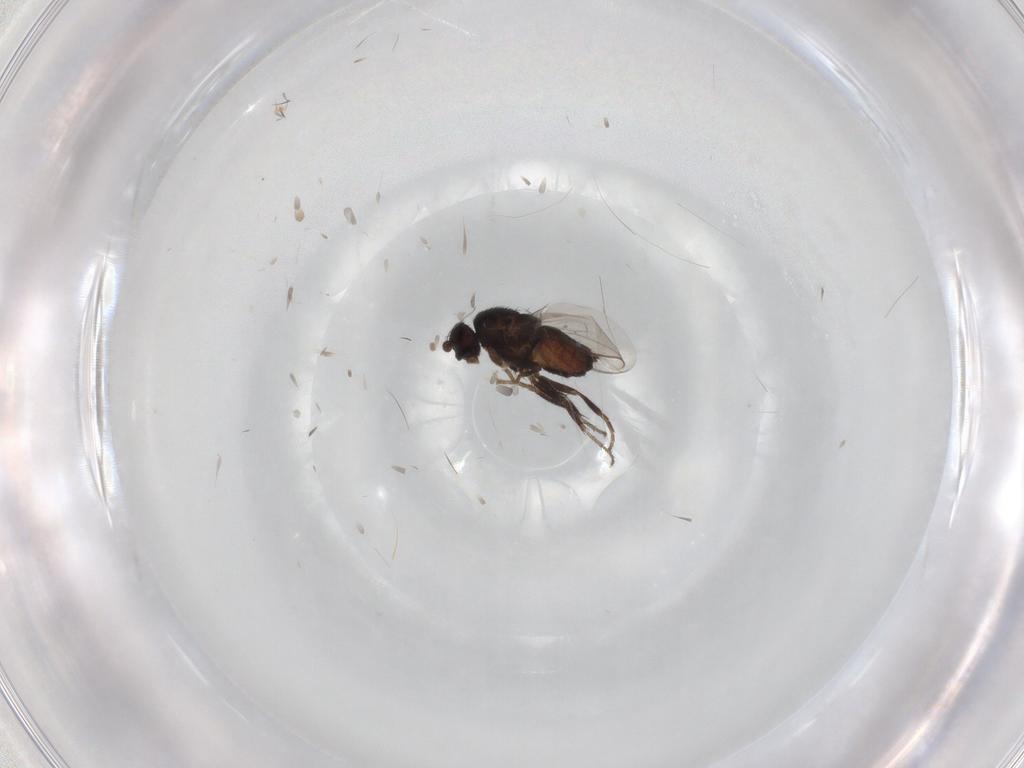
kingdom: Animalia
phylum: Arthropoda
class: Insecta
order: Diptera
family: Sphaeroceridae
